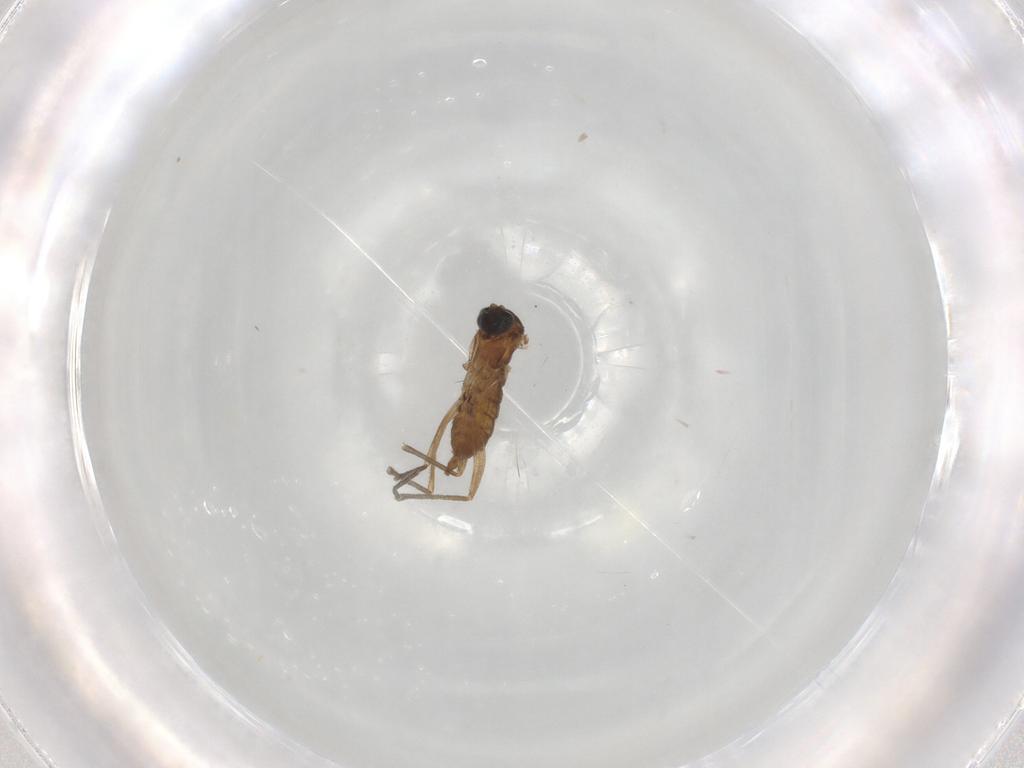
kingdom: Animalia
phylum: Arthropoda
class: Insecta
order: Diptera
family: Sciaridae
